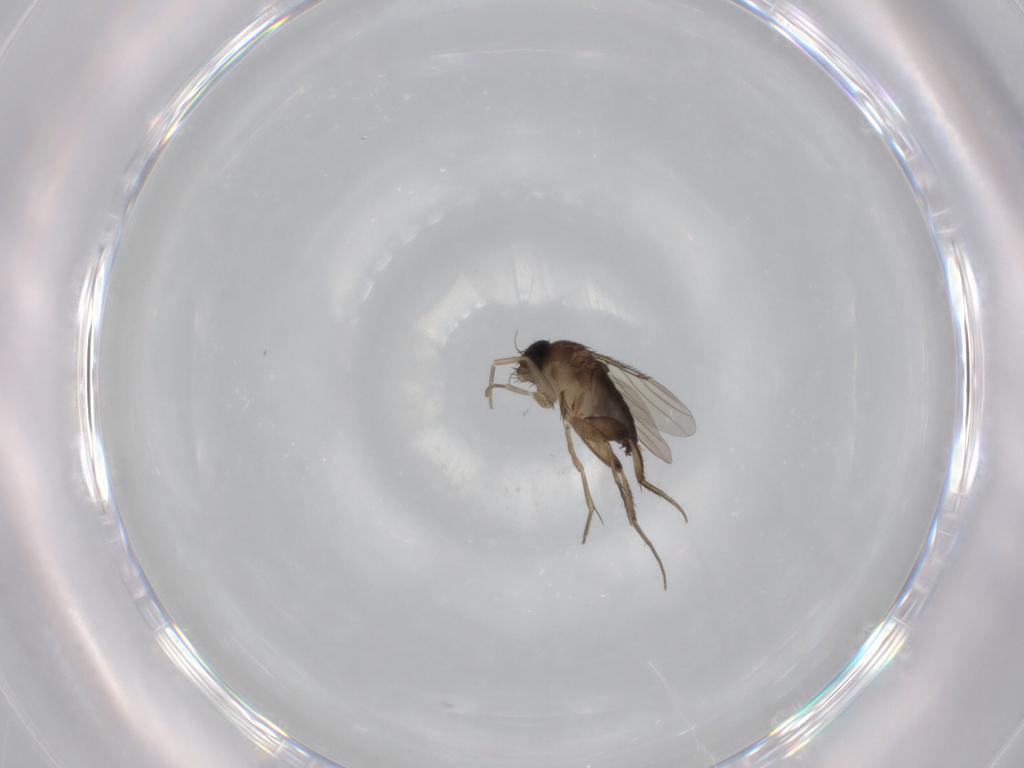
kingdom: Animalia
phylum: Arthropoda
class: Insecta
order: Diptera
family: Phoridae
